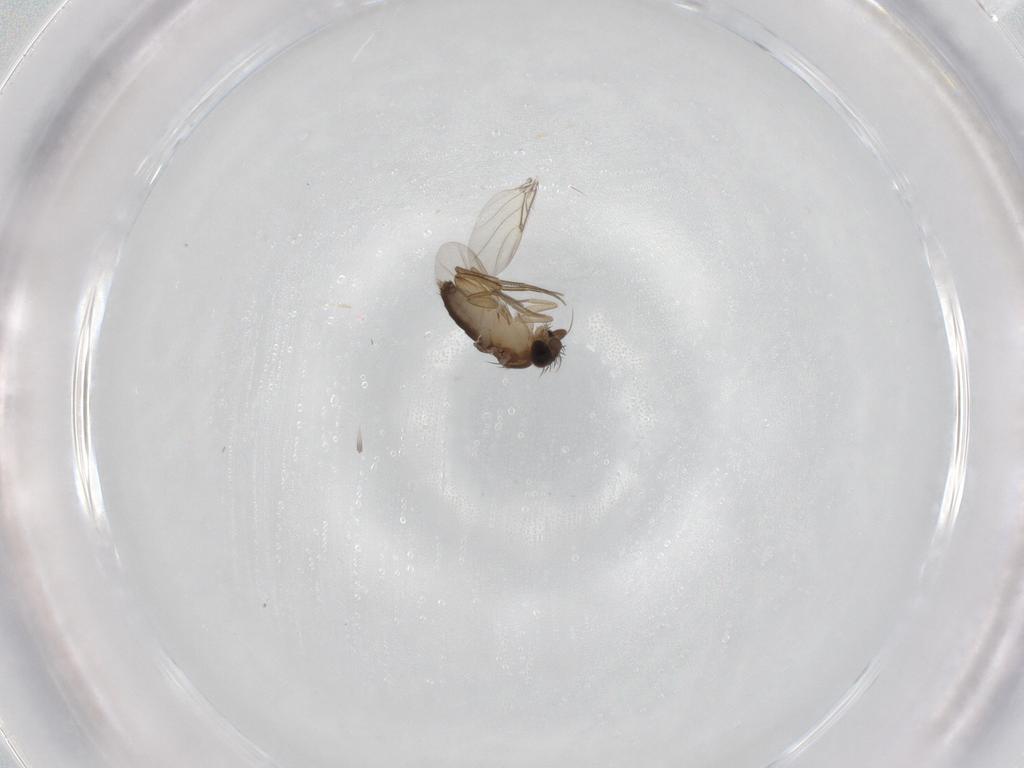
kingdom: Animalia
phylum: Arthropoda
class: Insecta
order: Diptera
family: Phoridae
